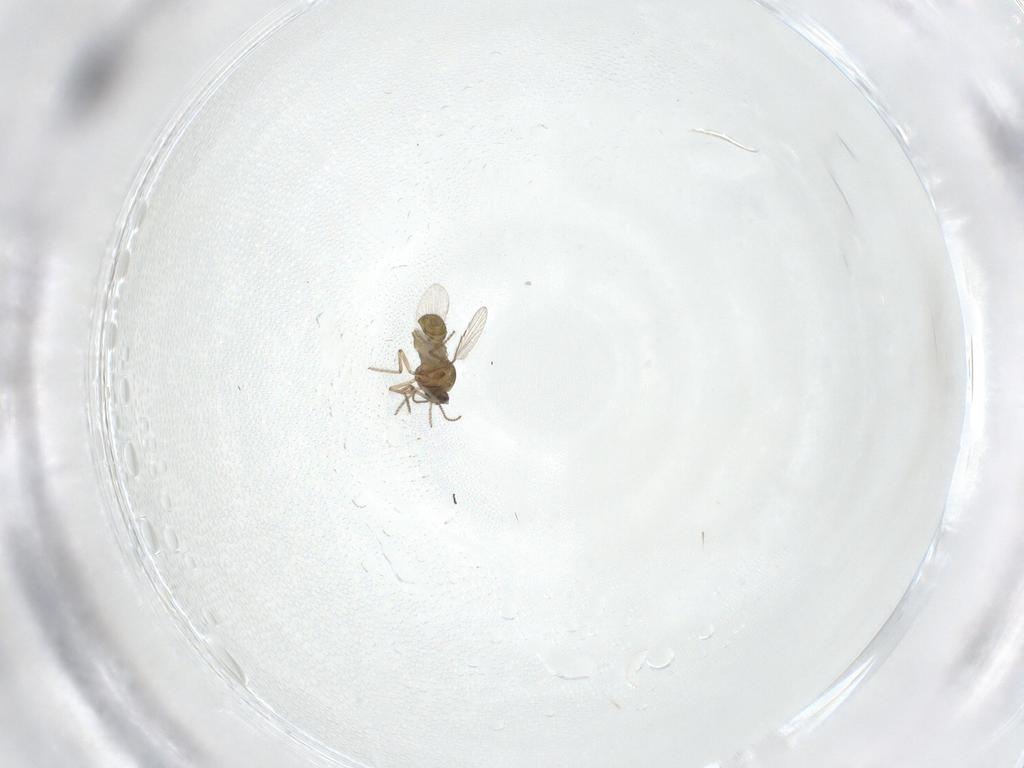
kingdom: Animalia
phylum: Arthropoda
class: Insecta
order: Diptera
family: Ceratopogonidae
